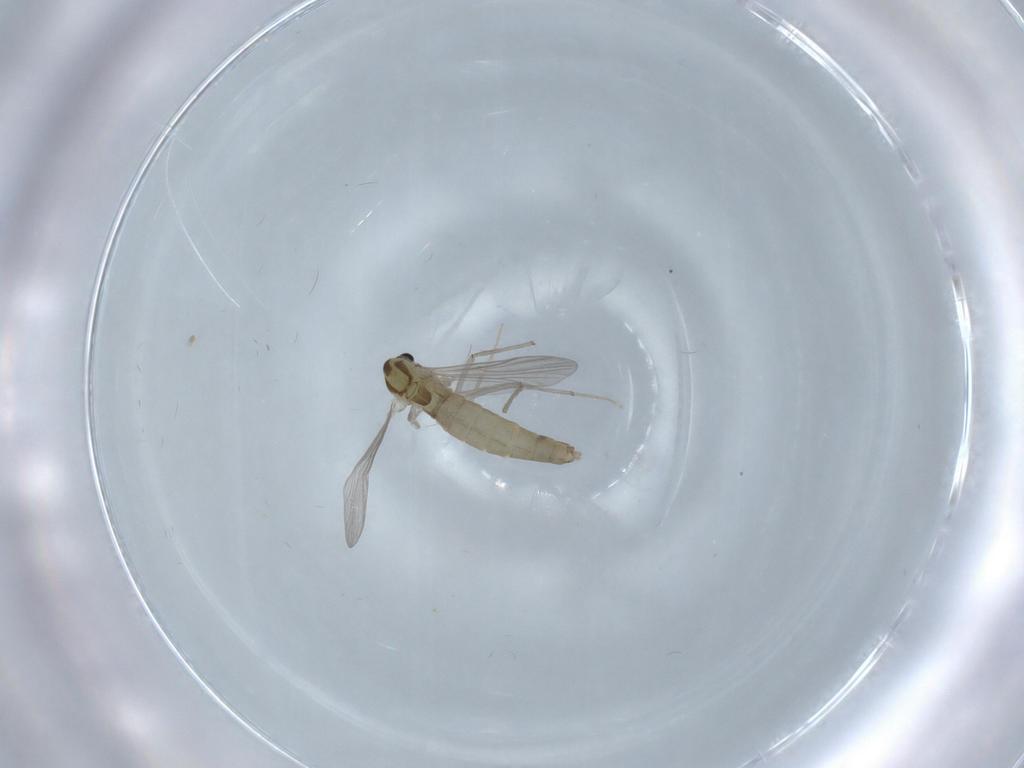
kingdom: Animalia
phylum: Arthropoda
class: Insecta
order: Diptera
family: Chironomidae
